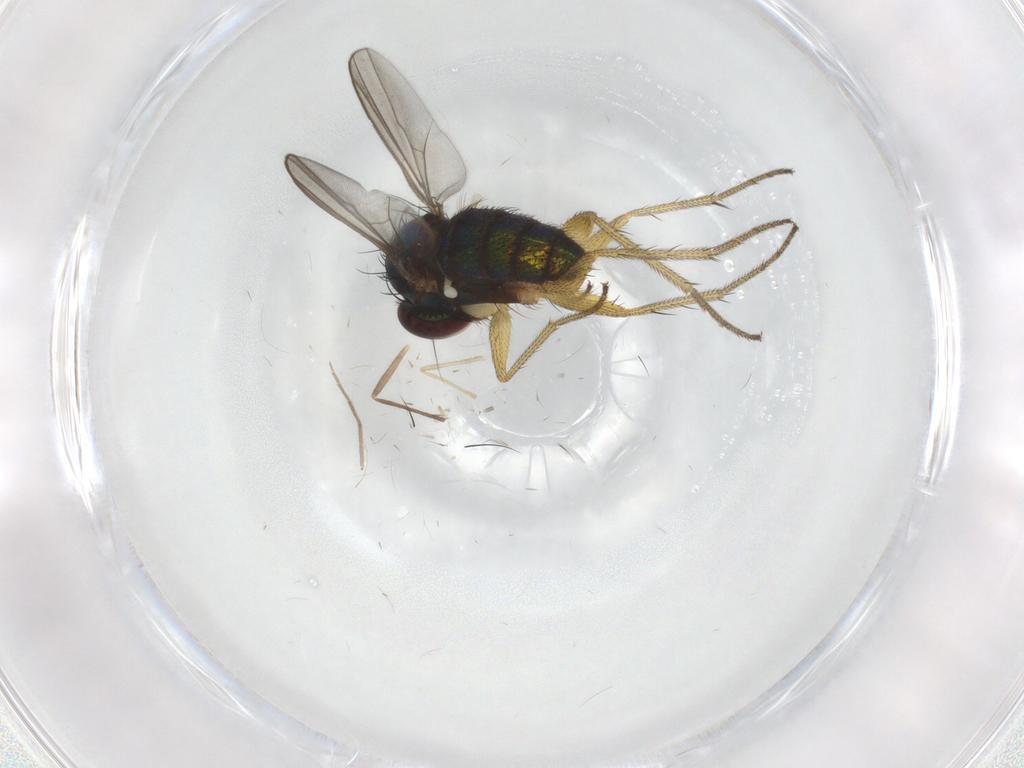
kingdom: Animalia
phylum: Arthropoda
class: Insecta
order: Diptera
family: Chironomidae
